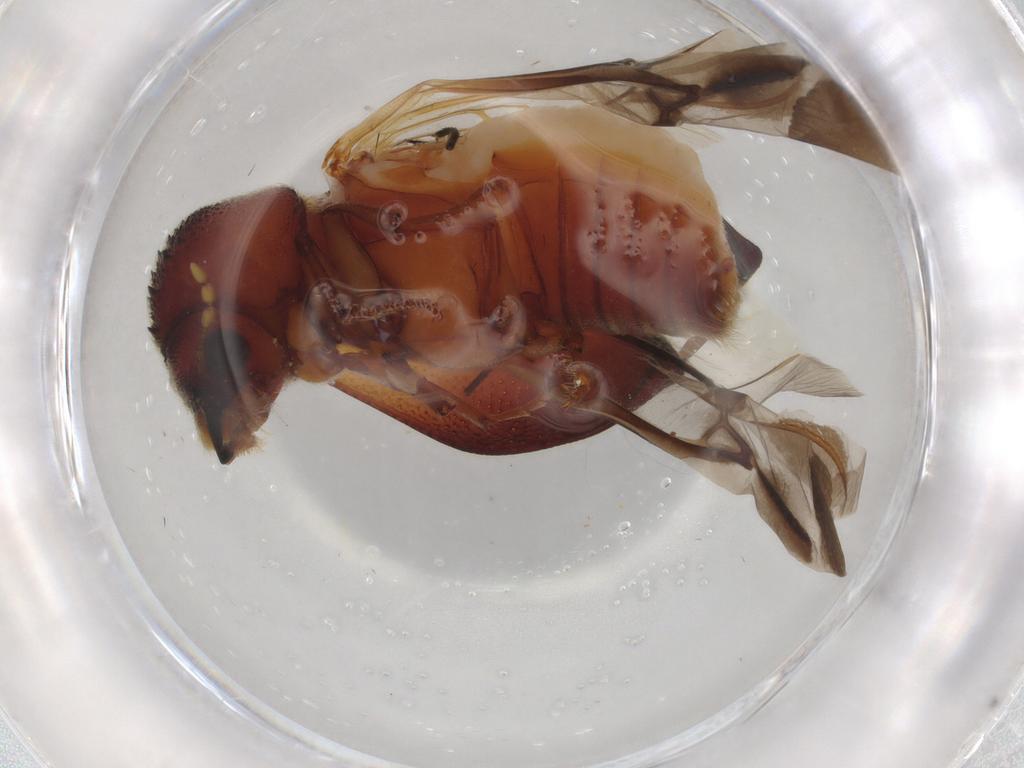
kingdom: Animalia
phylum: Arthropoda
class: Insecta
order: Coleoptera
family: Bostrichidae
